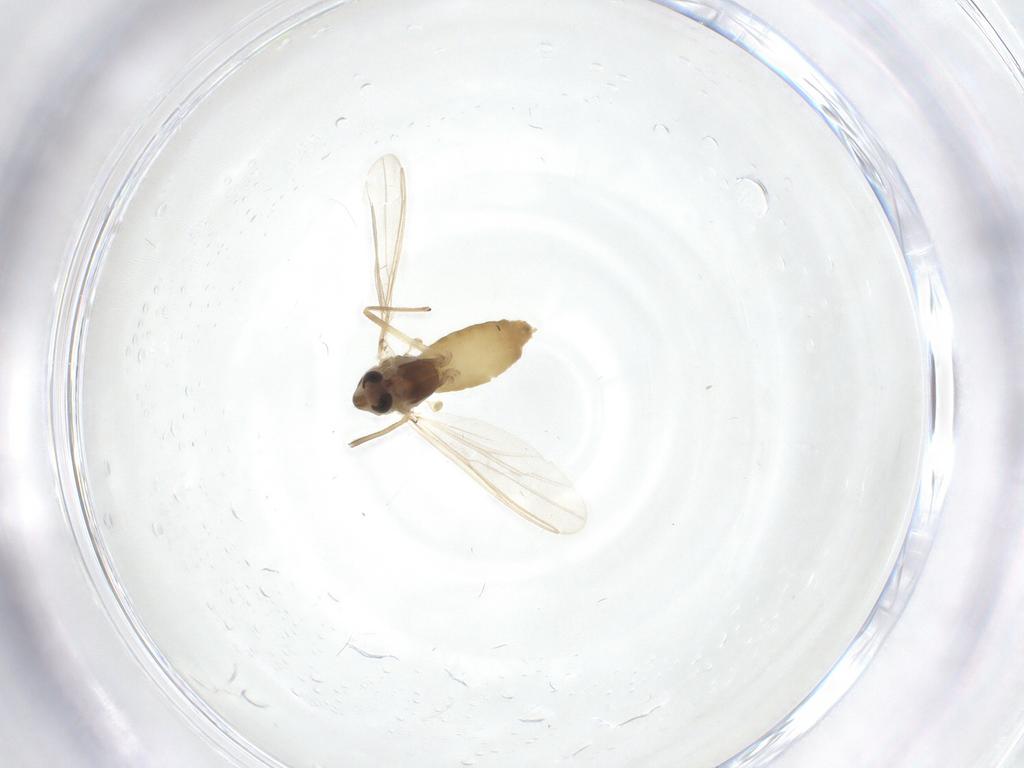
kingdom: Animalia
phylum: Arthropoda
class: Insecta
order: Diptera
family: Chironomidae
